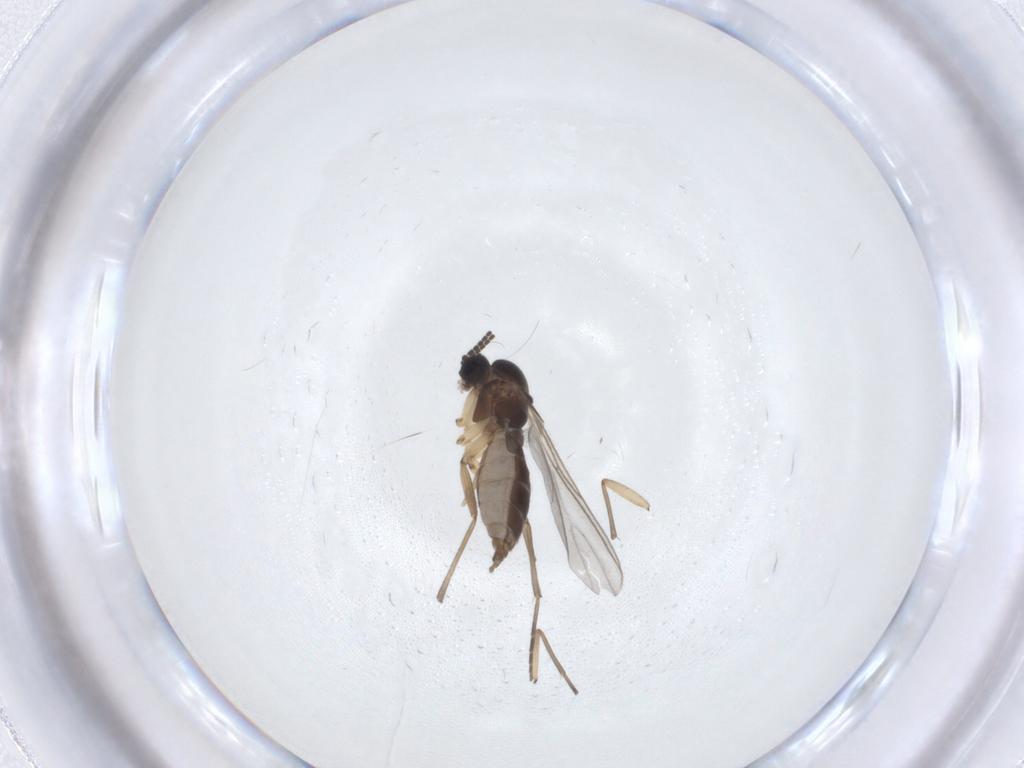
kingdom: Animalia
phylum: Arthropoda
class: Insecta
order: Diptera
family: Sciaridae
